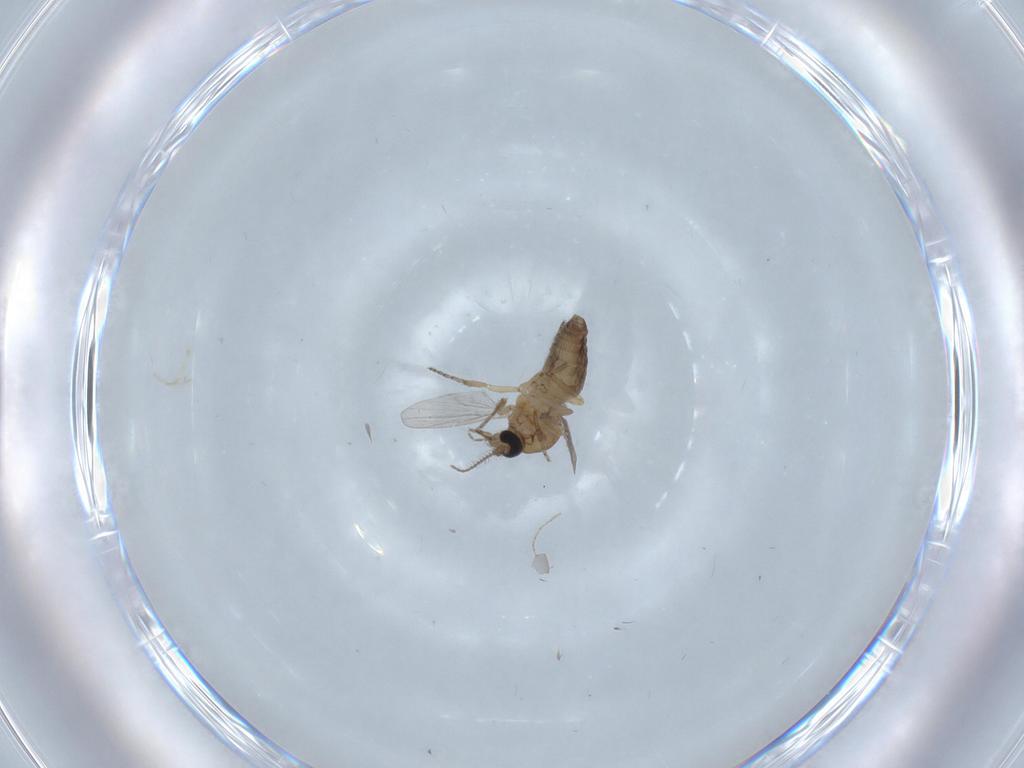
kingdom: Animalia
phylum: Arthropoda
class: Insecta
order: Diptera
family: Ceratopogonidae
